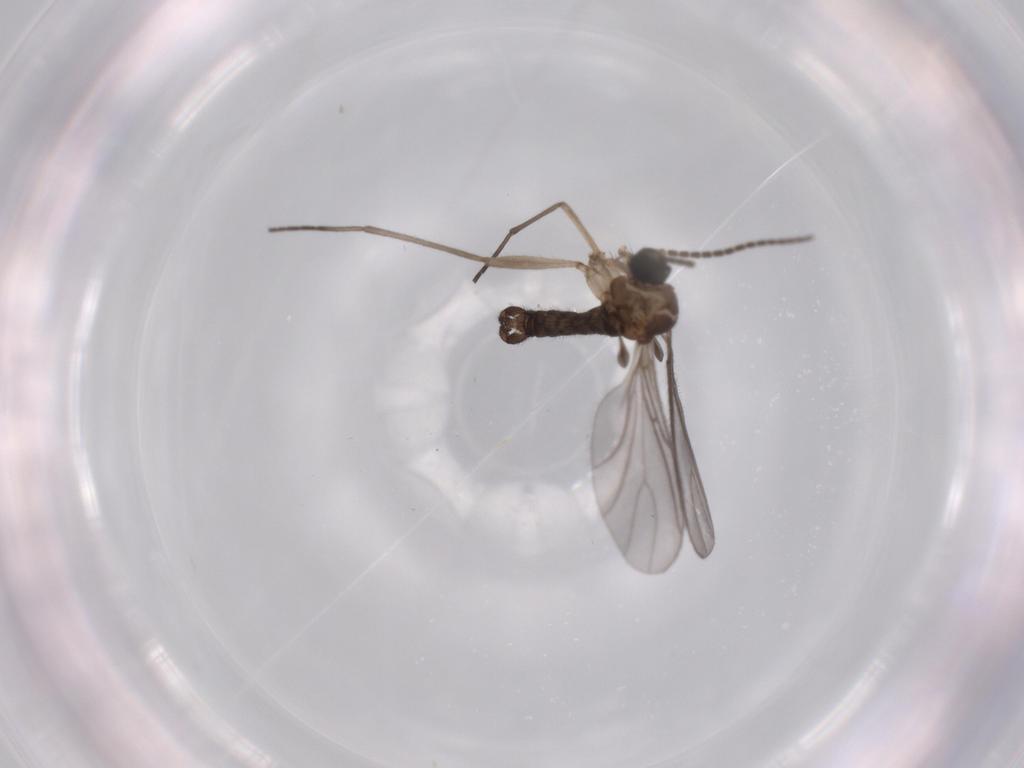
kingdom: Animalia
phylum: Arthropoda
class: Insecta
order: Diptera
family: Sciaridae
